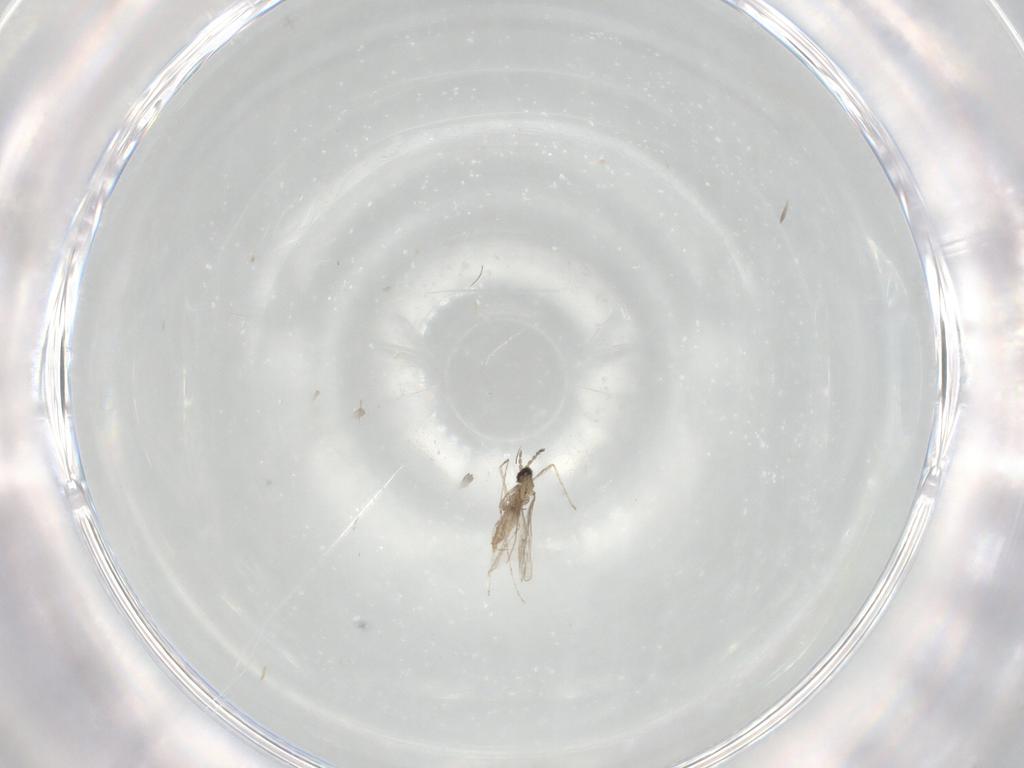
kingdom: Animalia
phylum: Arthropoda
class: Insecta
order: Diptera
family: Cecidomyiidae
